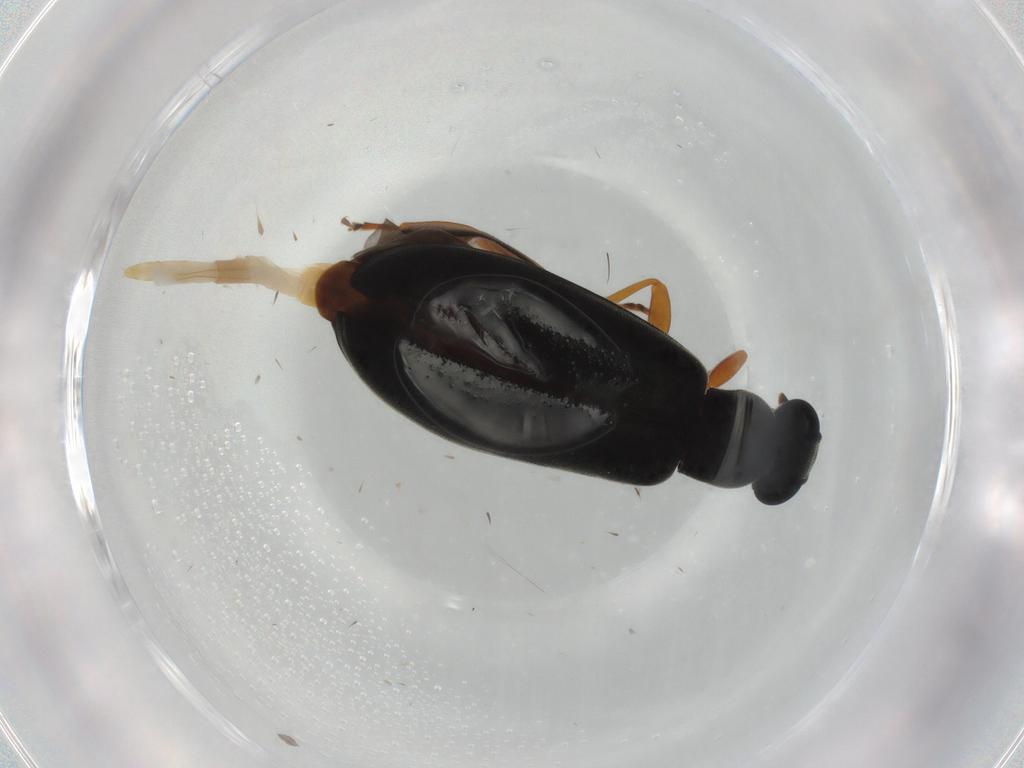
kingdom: Animalia
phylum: Arthropoda
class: Insecta
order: Coleoptera
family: Mycteridae
